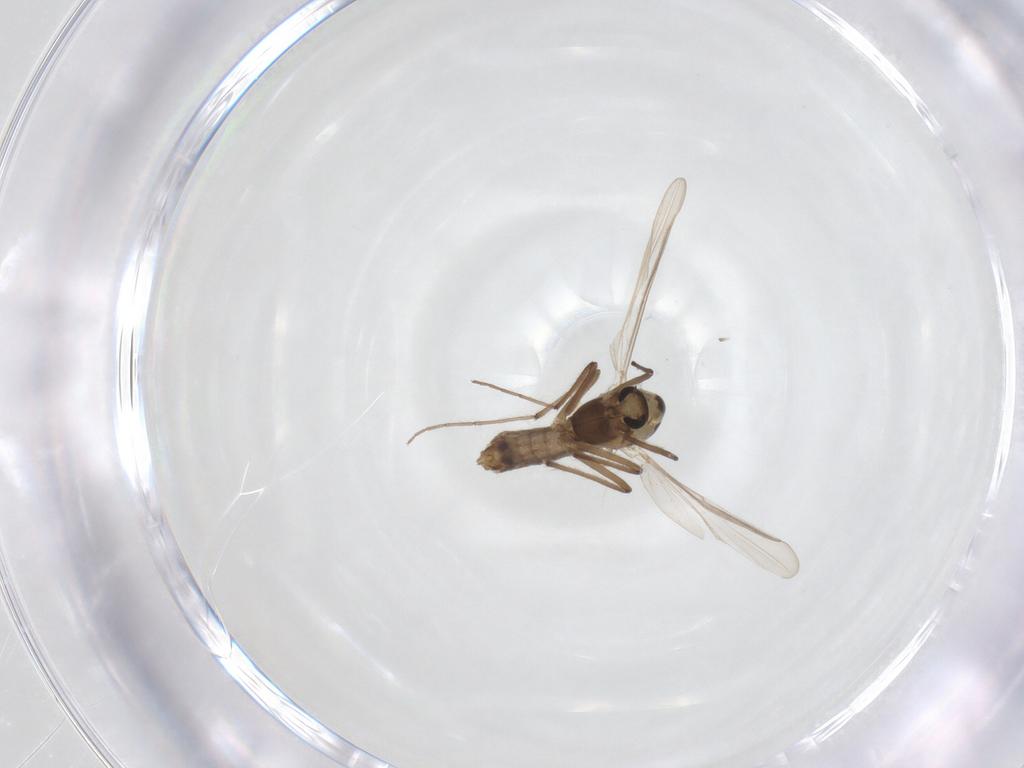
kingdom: Animalia
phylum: Arthropoda
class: Insecta
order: Diptera
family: Chironomidae
